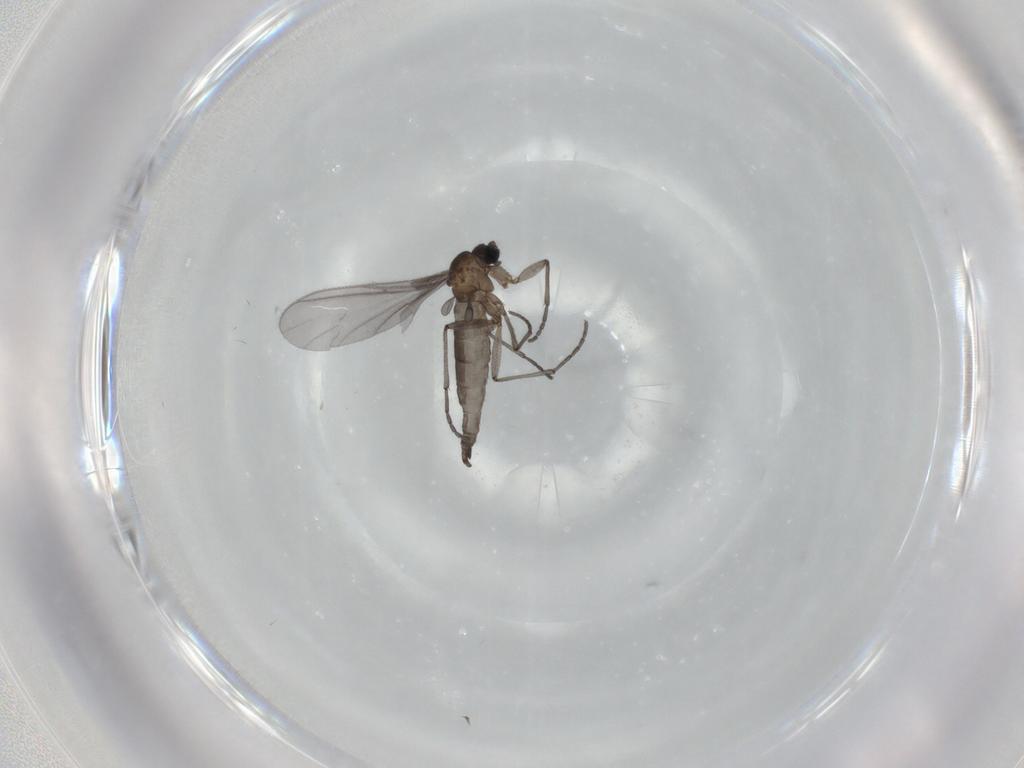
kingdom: Animalia
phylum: Arthropoda
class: Insecta
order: Diptera
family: Sciaridae
